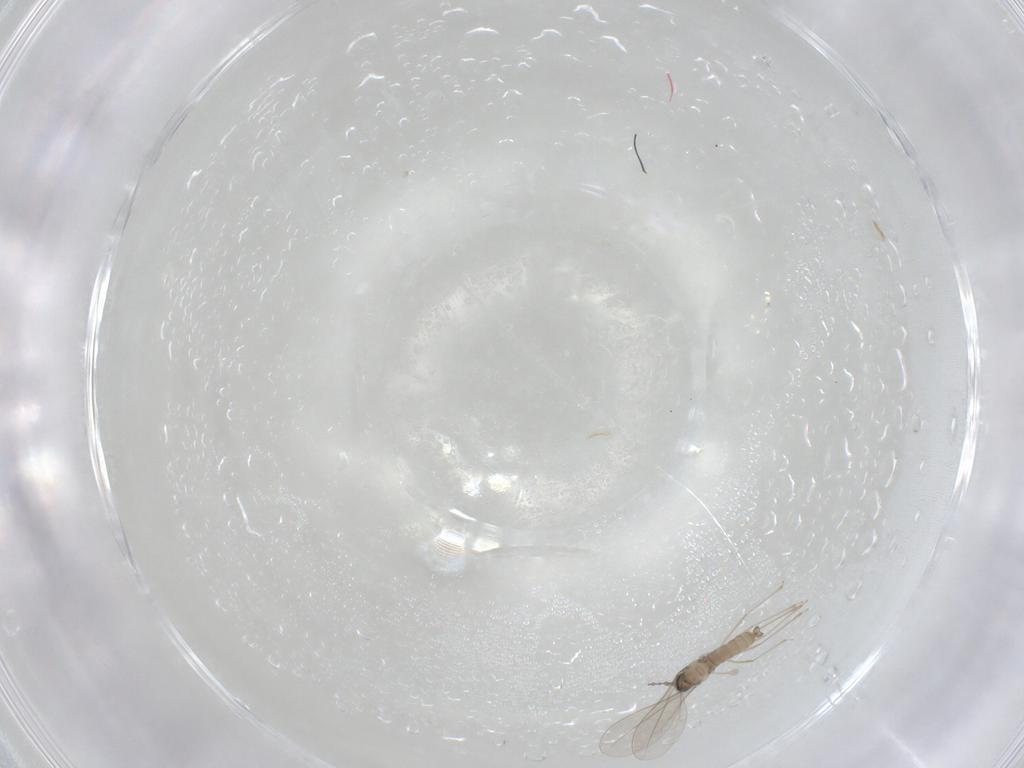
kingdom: Animalia
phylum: Arthropoda
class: Insecta
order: Diptera
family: Cecidomyiidae
